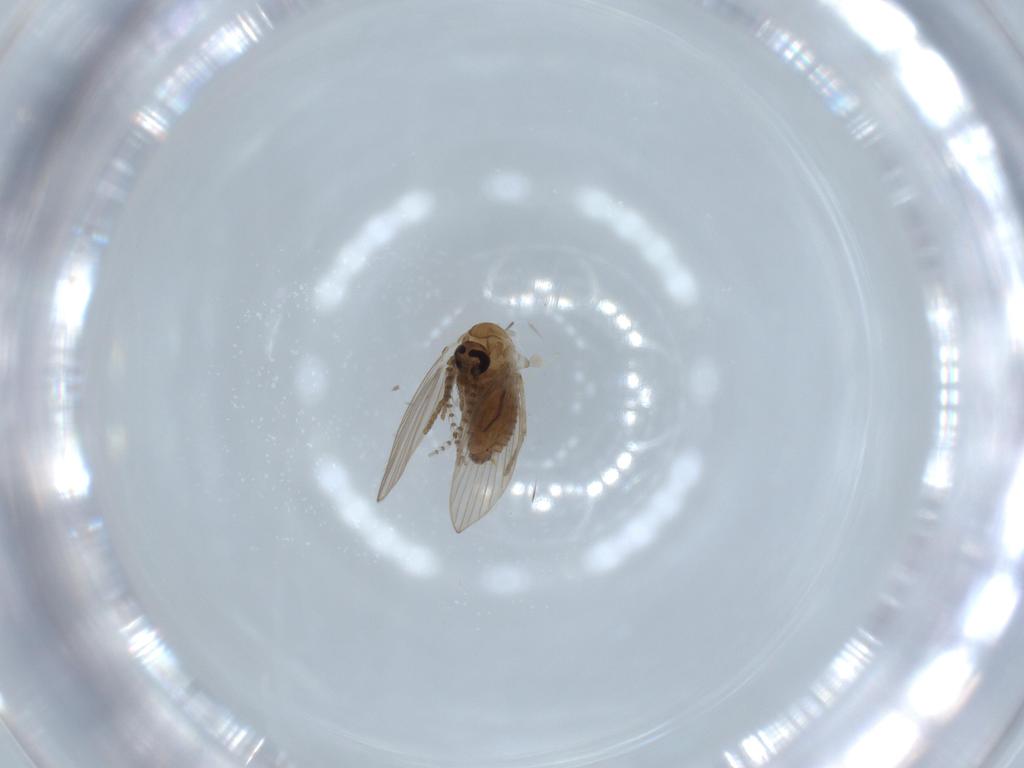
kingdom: Animalia
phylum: Arthropoda
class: Insecta
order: Diptera
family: Psychodidae
